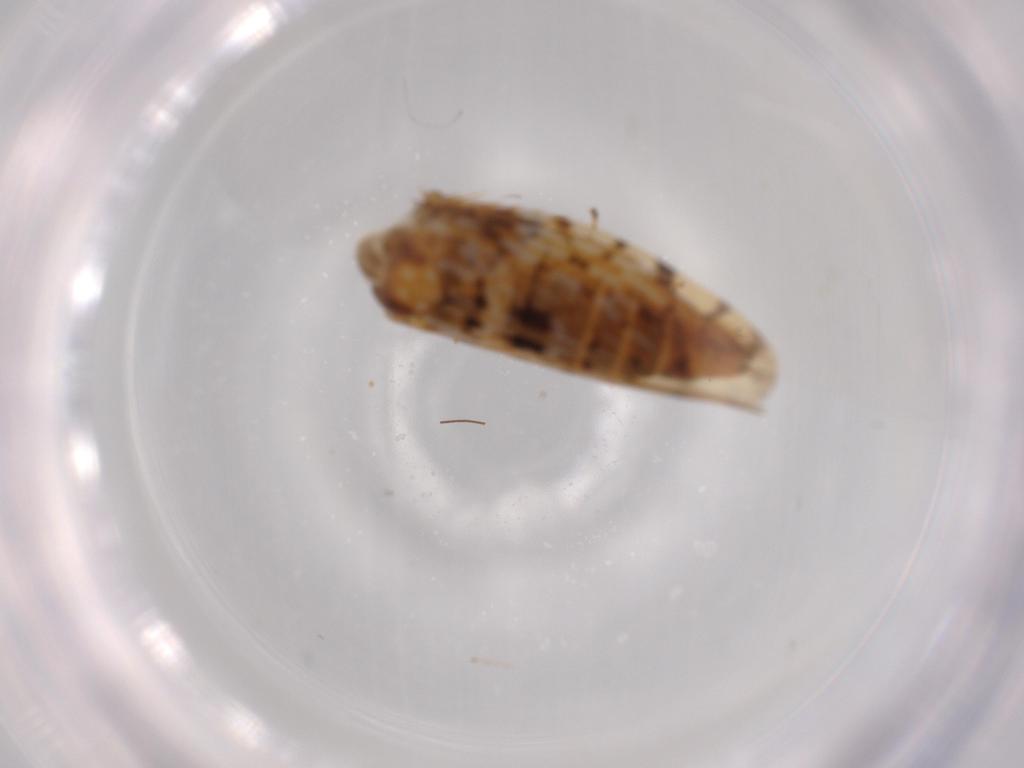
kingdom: Animalia
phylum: Arthropoda
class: Insecta
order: Hemiptera
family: Cicadellidae
